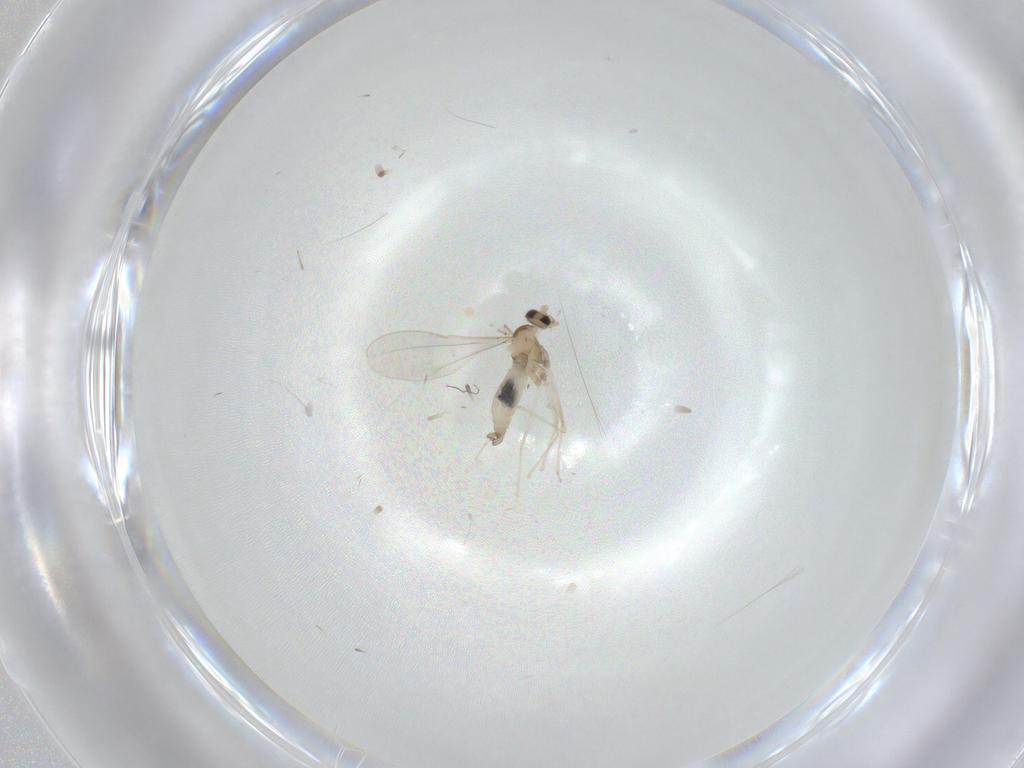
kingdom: Animalia
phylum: Arthropoda
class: Insecta
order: Diptera
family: Cecidomyiidae
